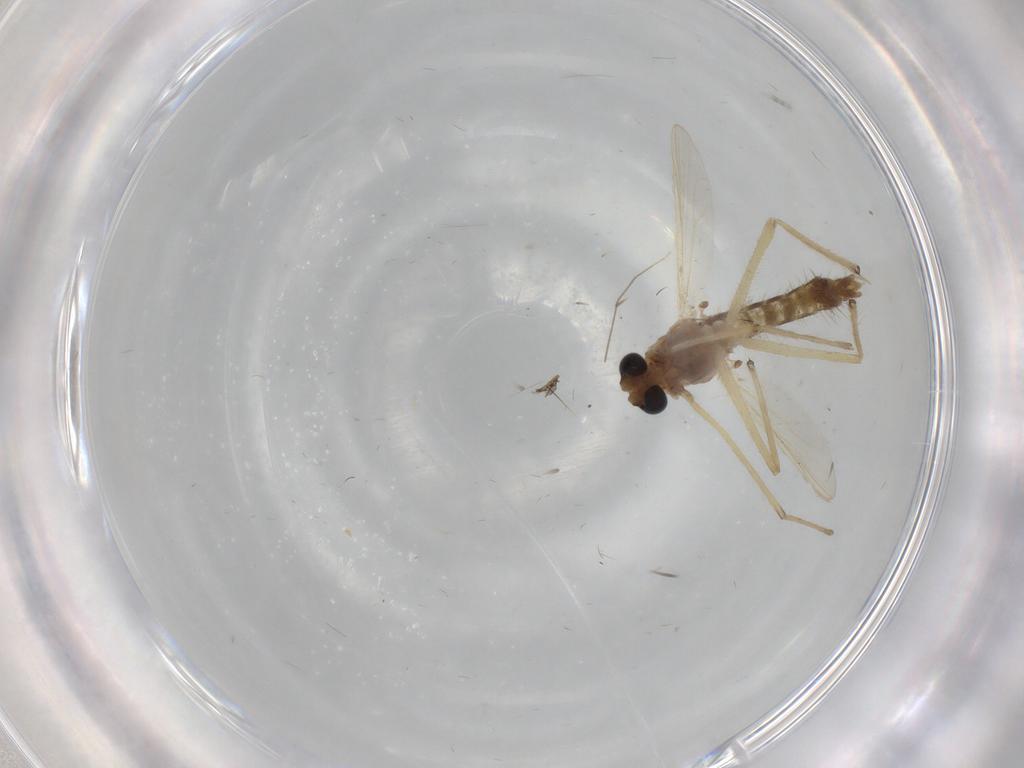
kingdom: Animalia
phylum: Arthropoda
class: Insecta
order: Diptera
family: Chironomidae
